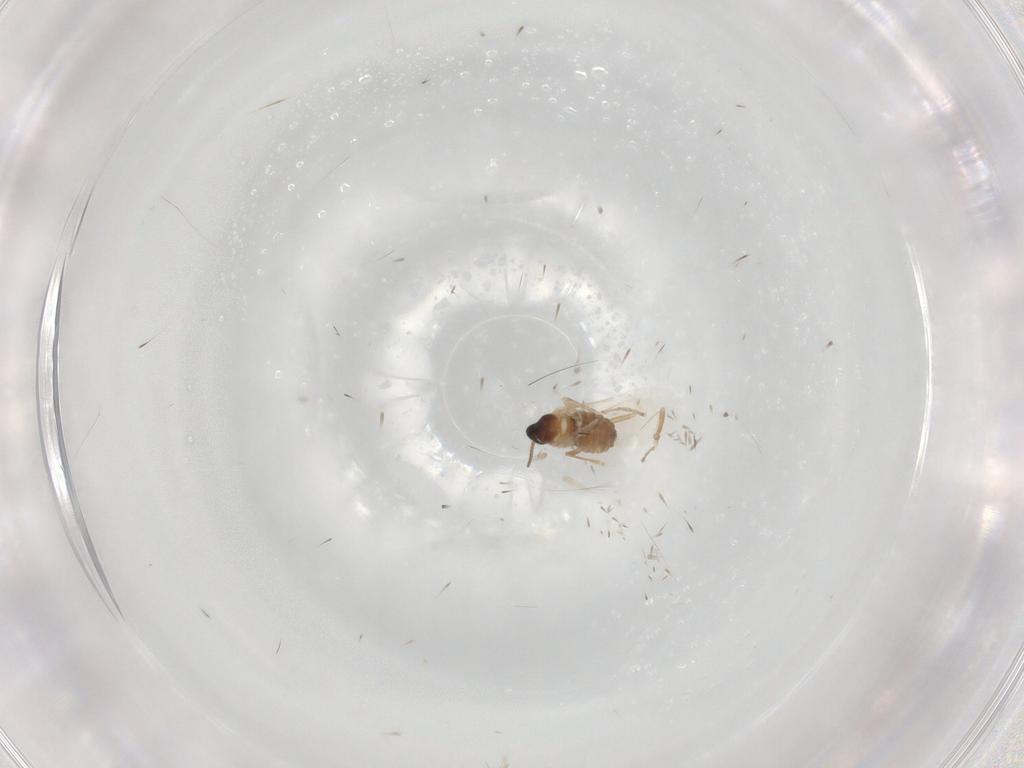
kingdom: Animalia
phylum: Arthropoda
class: Insecta
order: Diptera
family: Cecidomyiidae
